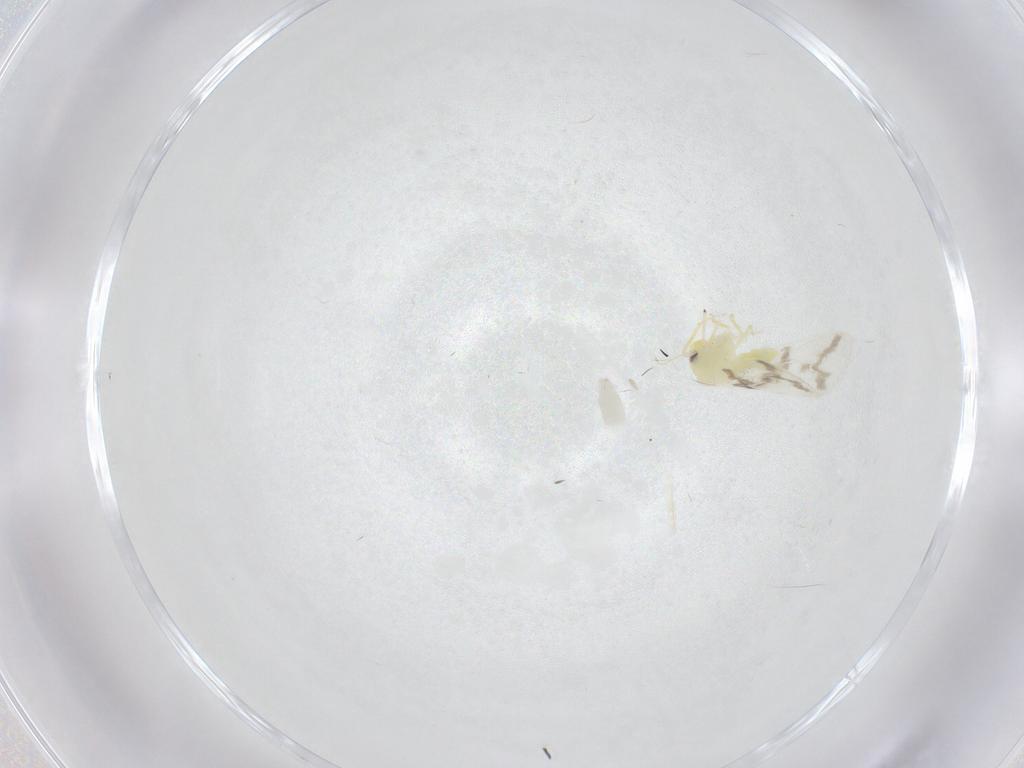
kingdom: Animalia
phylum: Arthropoda
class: Insecta
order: Hemiptera
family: Aleyrodidae
